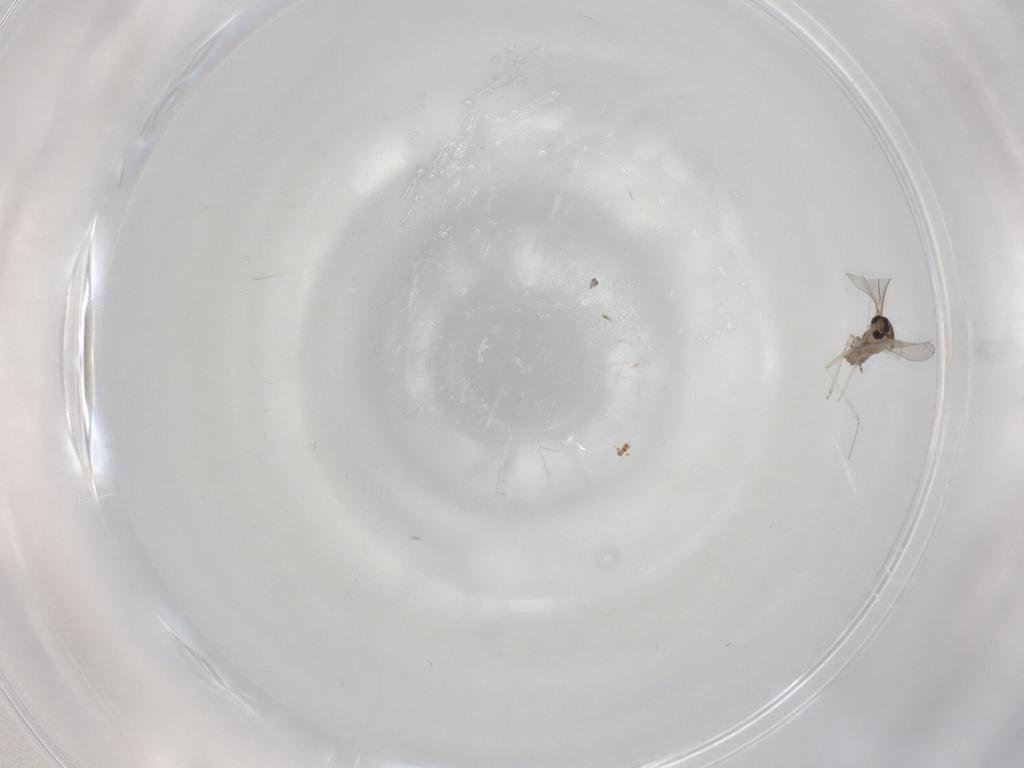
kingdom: Animalia
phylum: Arthropoda
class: Insecta
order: Diptera
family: Cecidomyiidae
